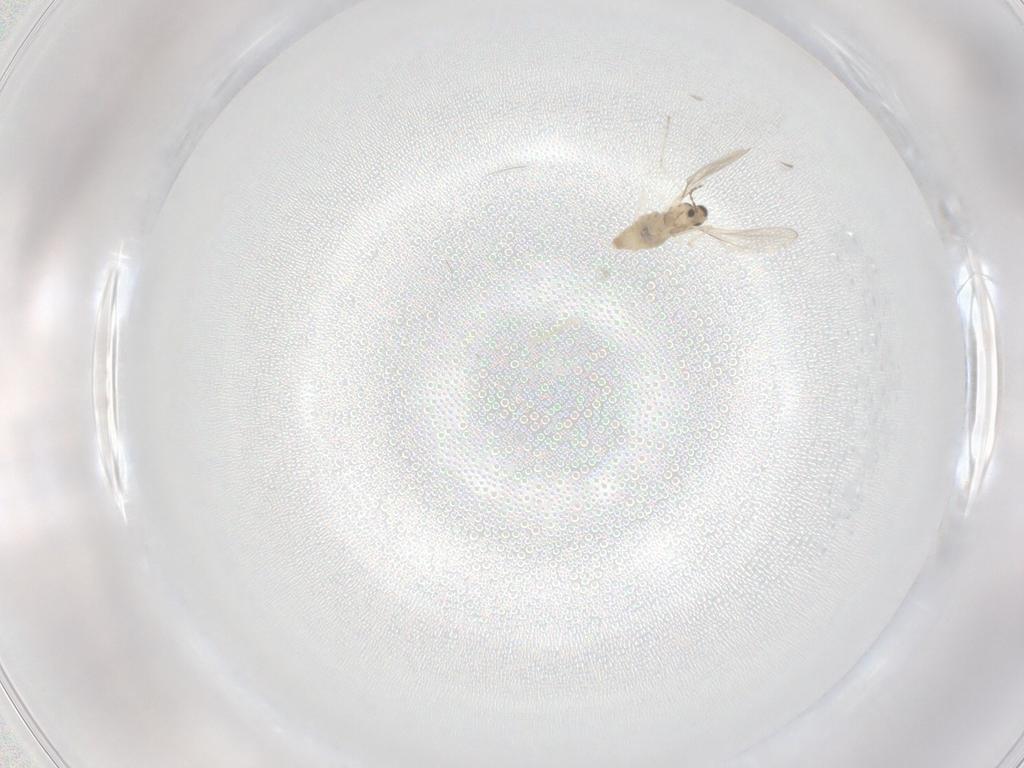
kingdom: Animalia
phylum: Arthropoda
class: Insecta
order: Diptera
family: Cecidomyiidae
